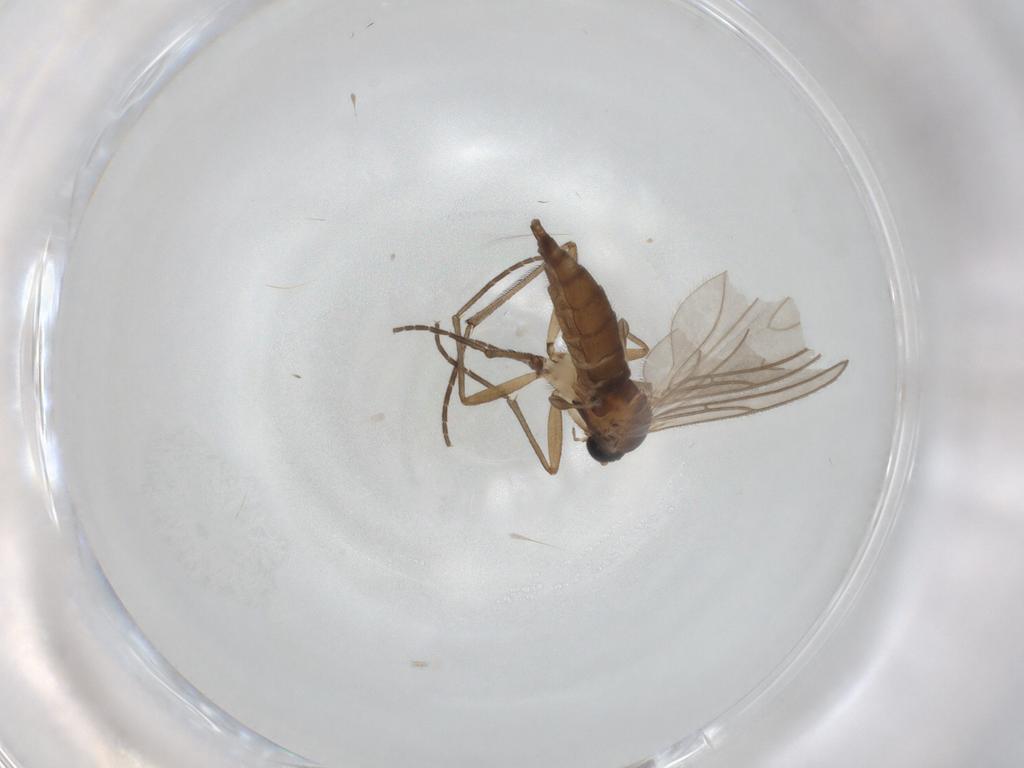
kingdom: Animalia
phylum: Arthropoda
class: Insecta
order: Diptera
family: Sciaridae
